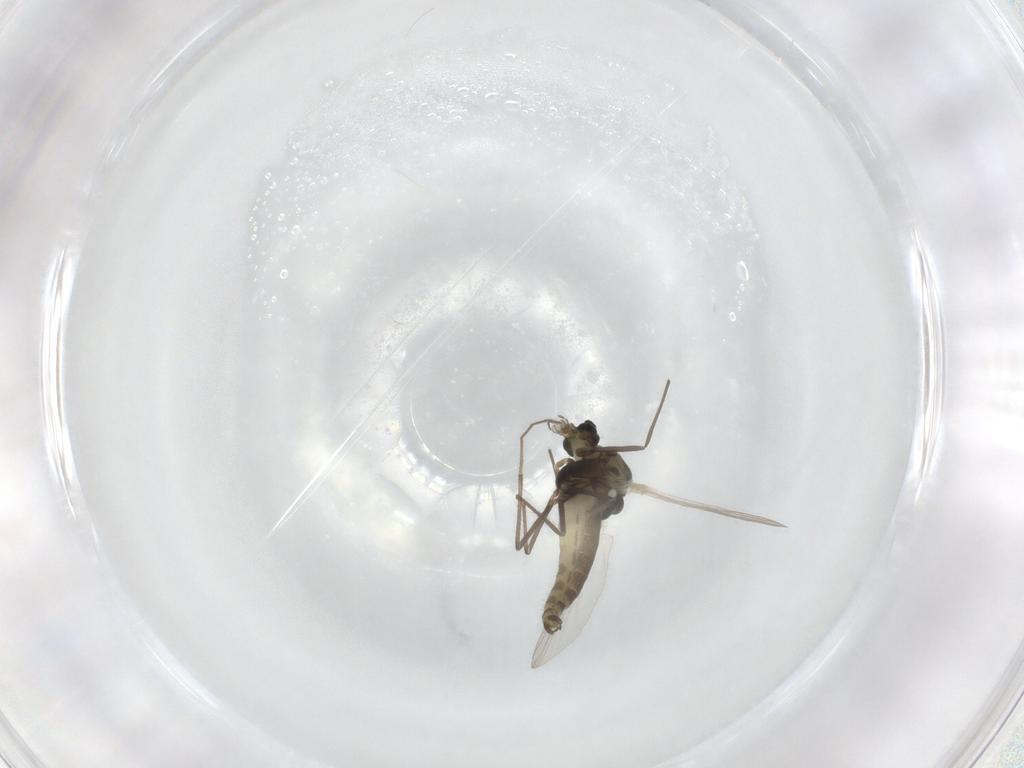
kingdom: Animalia
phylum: Arthropoda
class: Insecta
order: Diptera
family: Chironomidae
